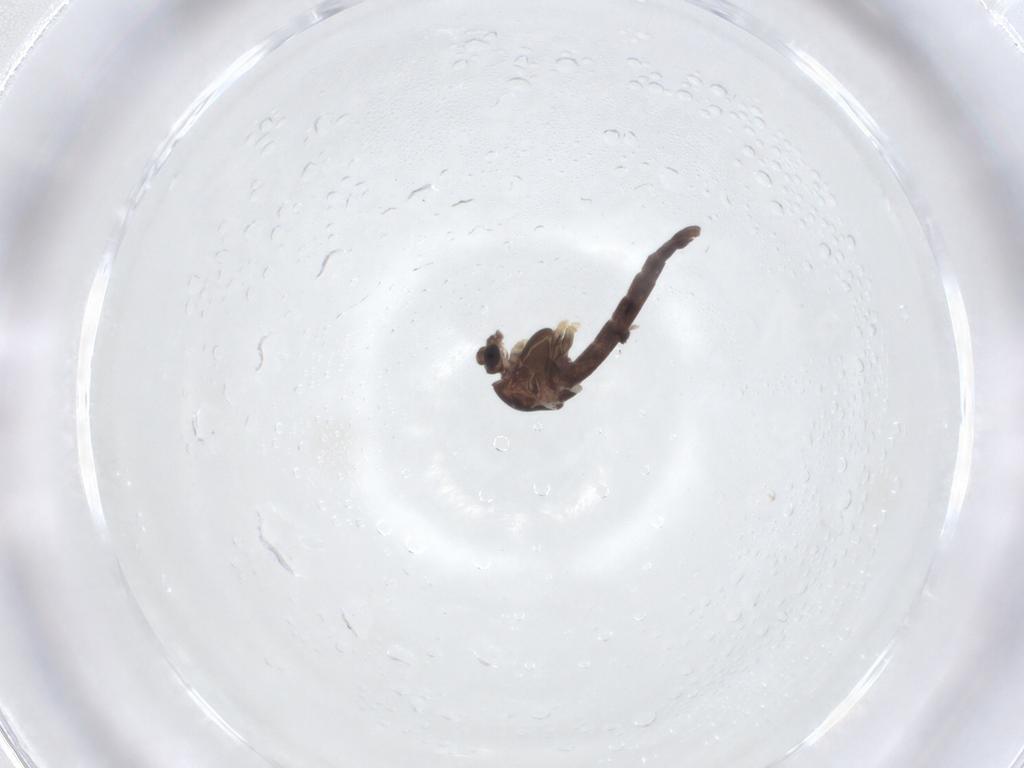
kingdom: Animalia
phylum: Arthropoda
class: Insecta
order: Diptera
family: Chironomidae
